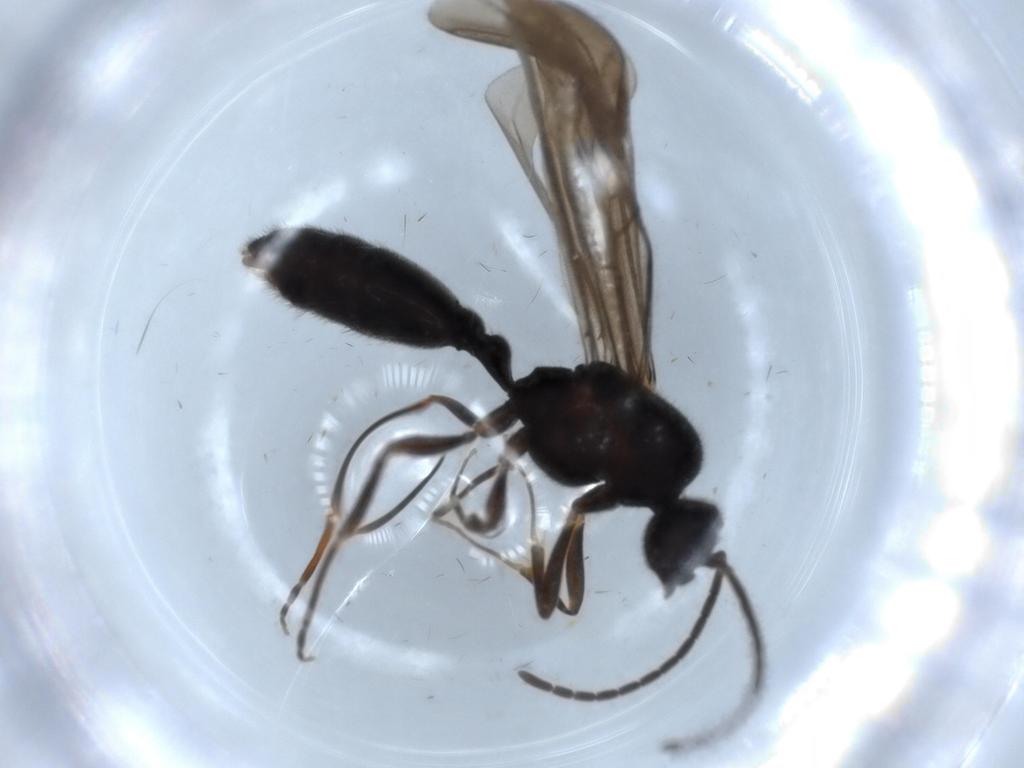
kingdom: Animalia
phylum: Arthropoda
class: Insecta
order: Hymenoptera
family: Formicidae
